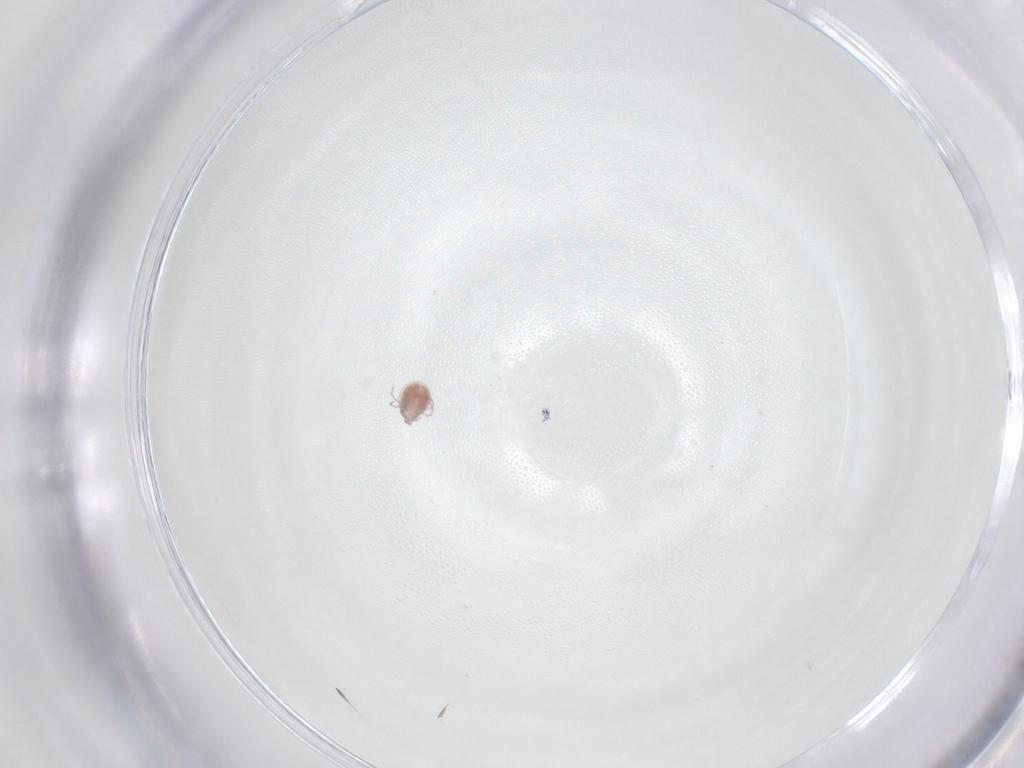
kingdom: Animalia
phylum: Arthropoda
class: Arachnida
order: Trombidiformes
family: Pionidae
